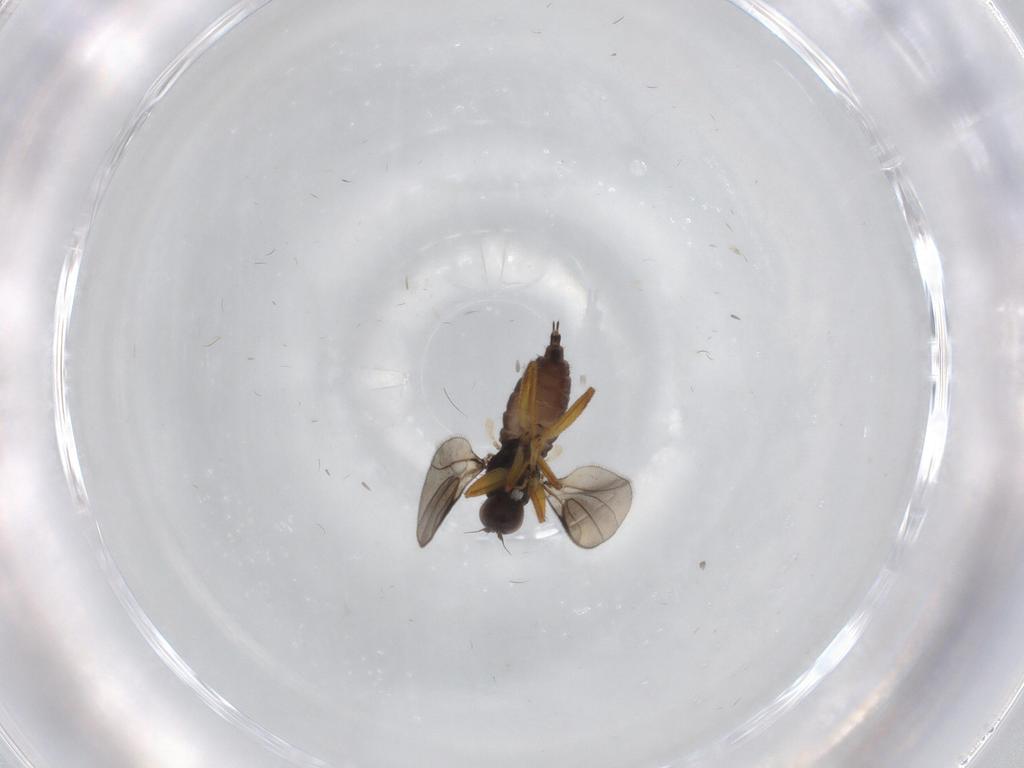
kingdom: Animalia
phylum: Arthropoda
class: Insecta
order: Diptera
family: Hybotidae
